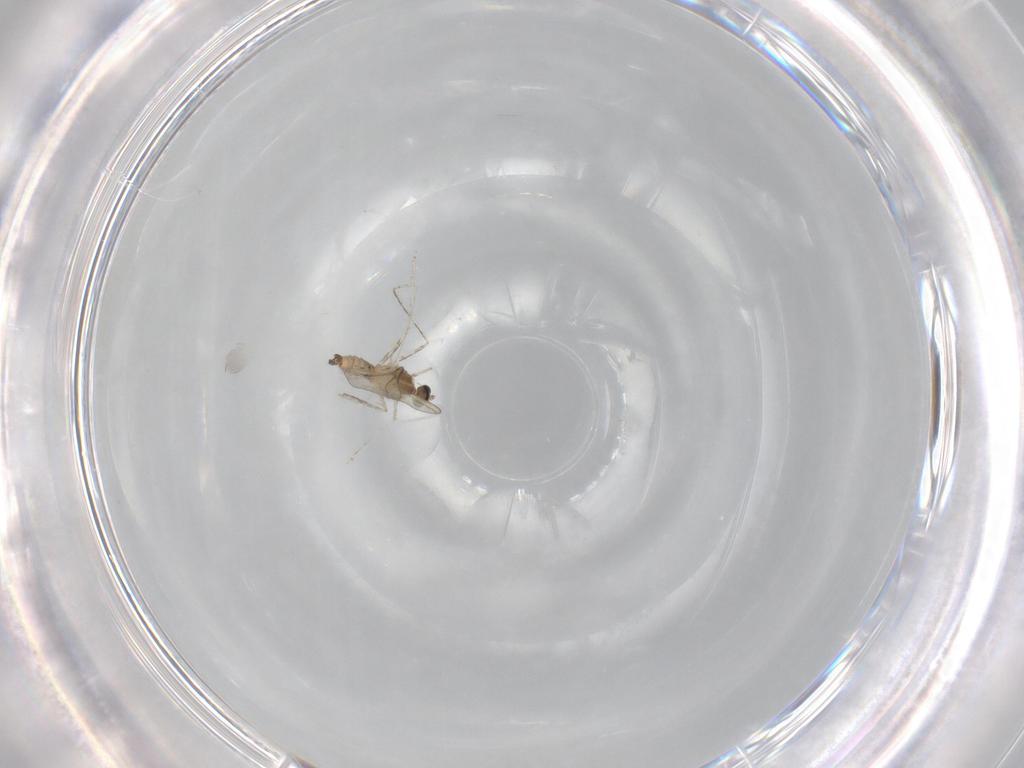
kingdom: Animalia
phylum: Arthropoda
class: Insecta
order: Diptera
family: Cecidomyiidae
